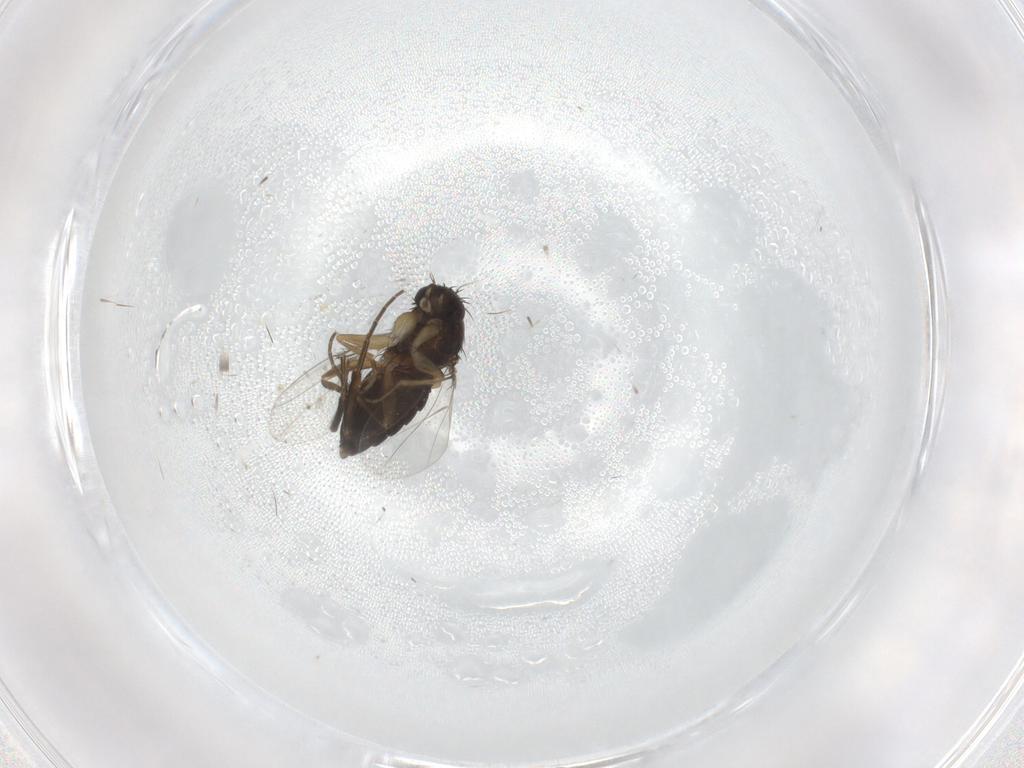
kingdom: Animalia
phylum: Arthropoda
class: Insecta
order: Diptera
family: Phoridae
